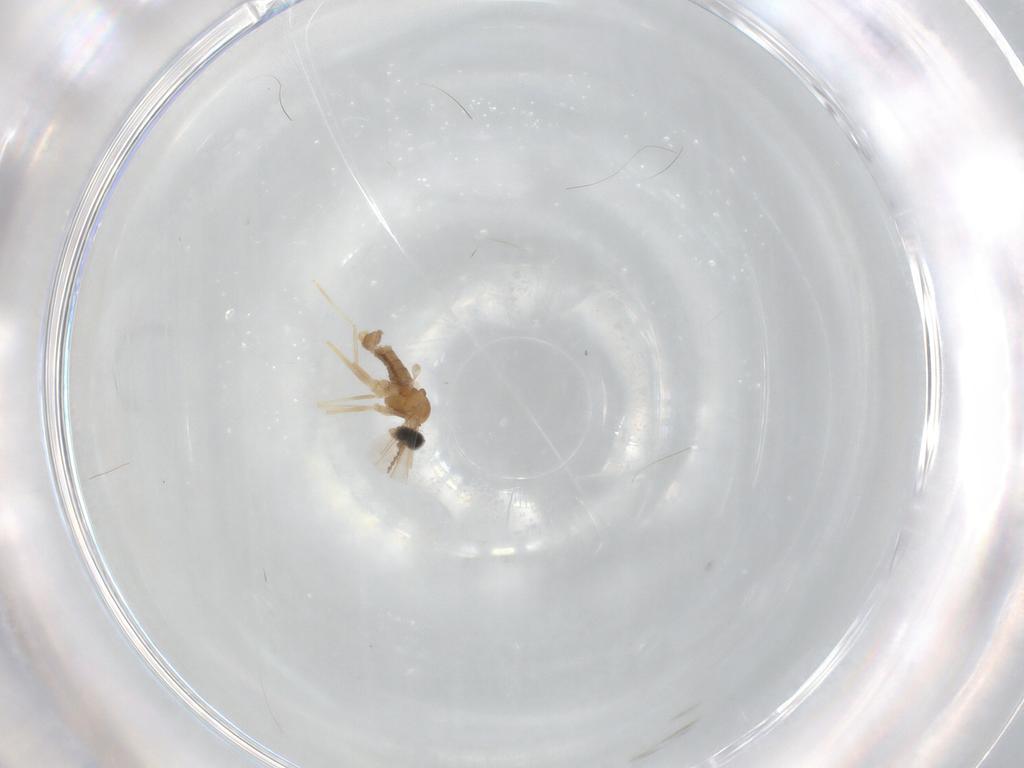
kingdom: Animalia
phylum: Arthropoda
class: Insecta
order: Diptera
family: Cecidomyiidae
